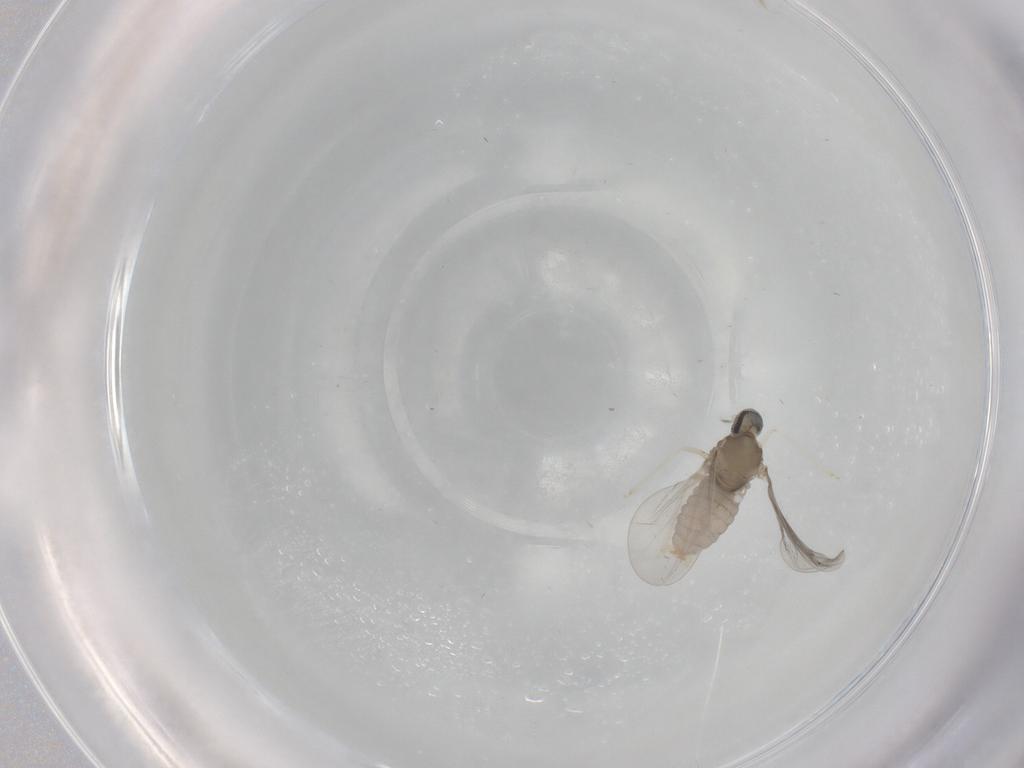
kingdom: Animalia
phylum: Arthropoda
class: Insecta
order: Diptera
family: Cecidomyiidae
